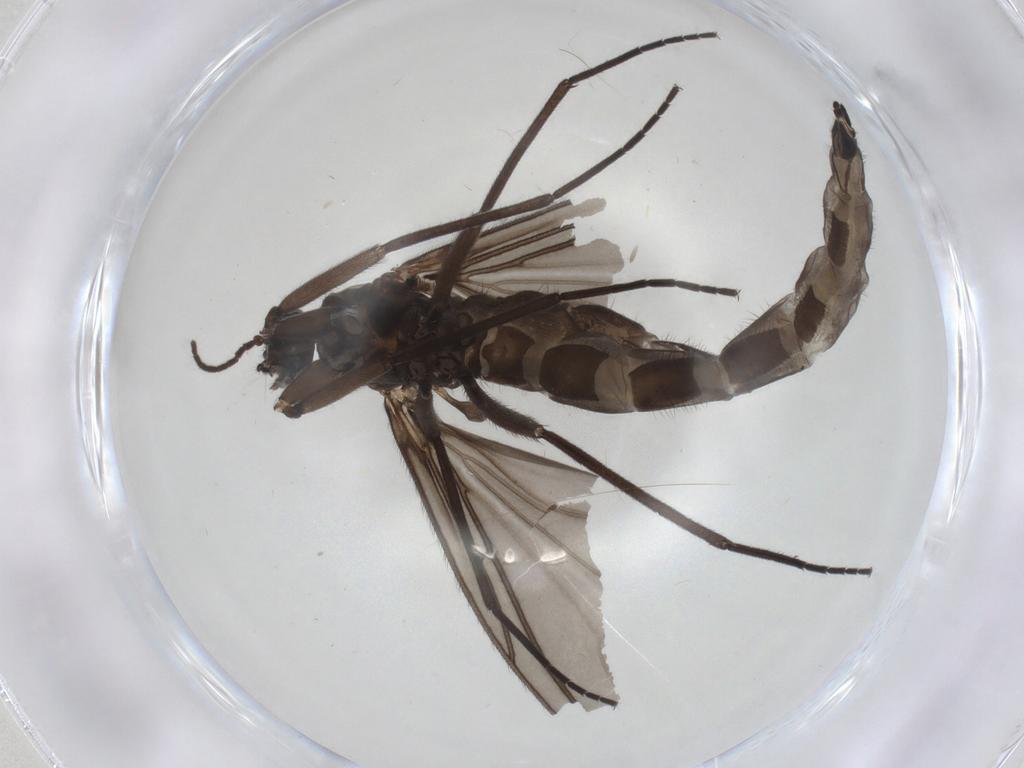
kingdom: Animalia
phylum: Arthropoda
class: Insecta
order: Diptera
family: Sciaridae
